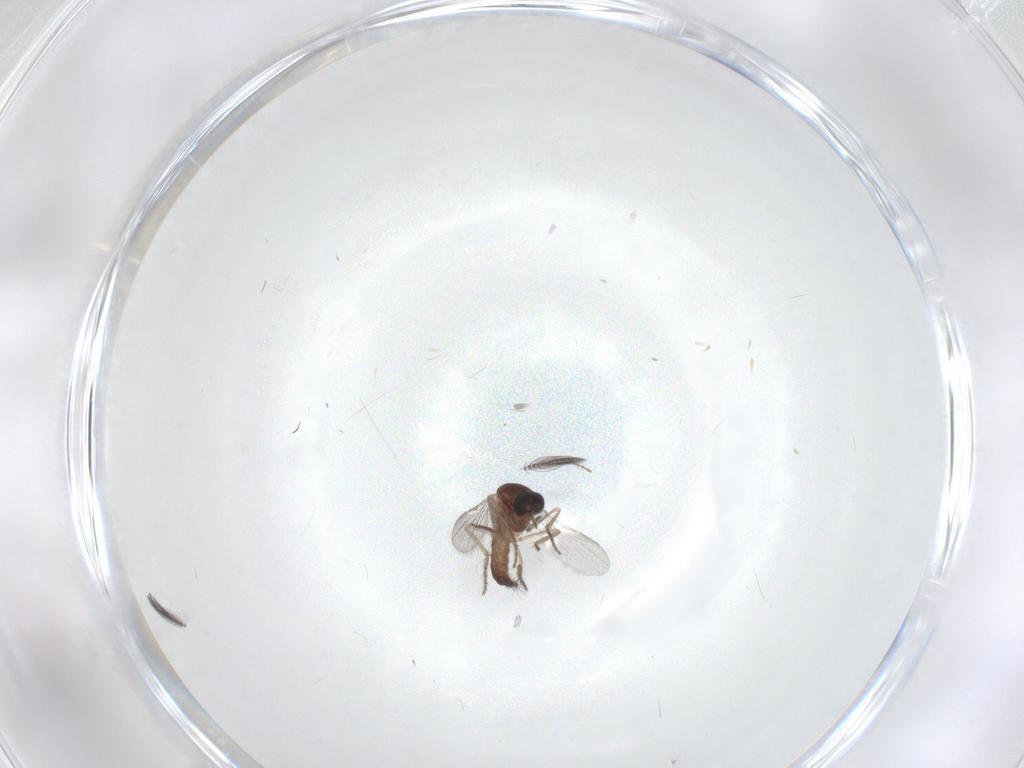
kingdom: Animalia
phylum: Arthropoda
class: Insecta
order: Diptera
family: Ceratopogonidae
